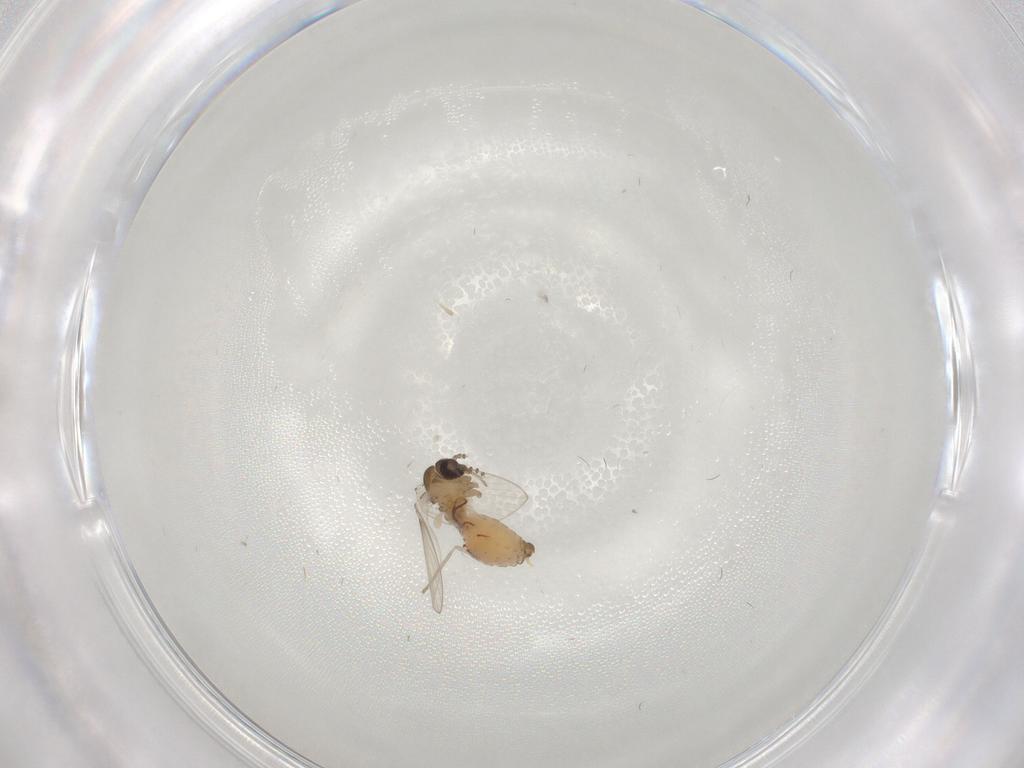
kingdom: Animalia
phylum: Arthropoda
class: Insecta
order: Diptera
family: Psychodidae
